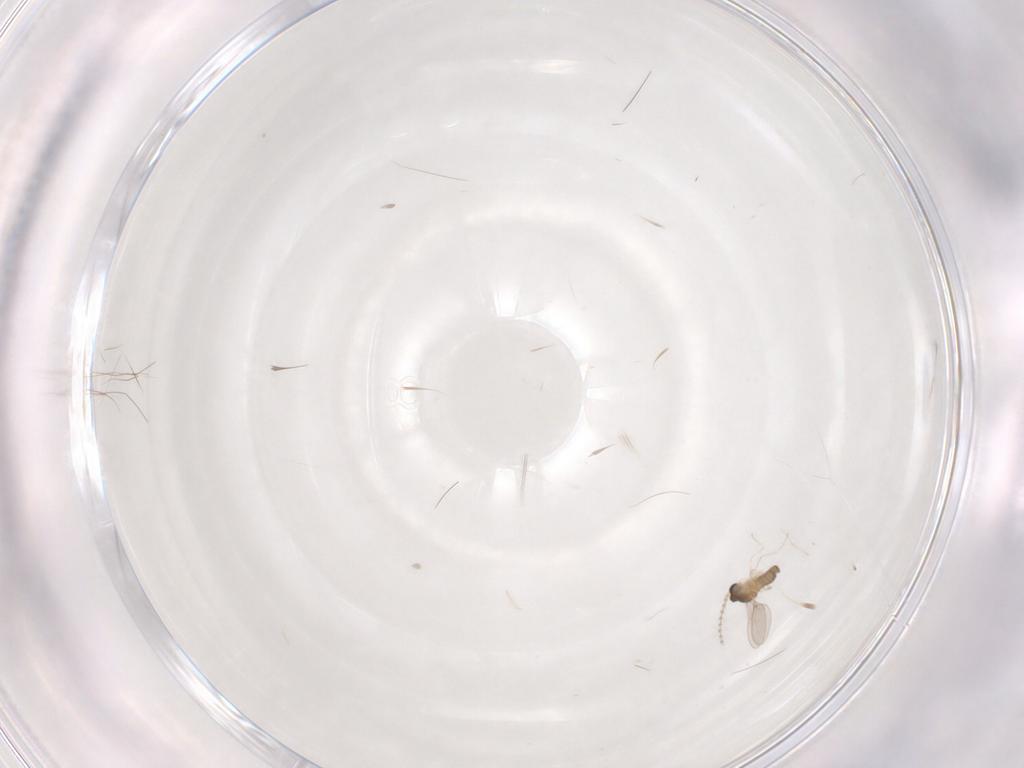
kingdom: Animalia
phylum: Arthropoda
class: Insecta
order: Diptera
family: Cecidomyiidae
